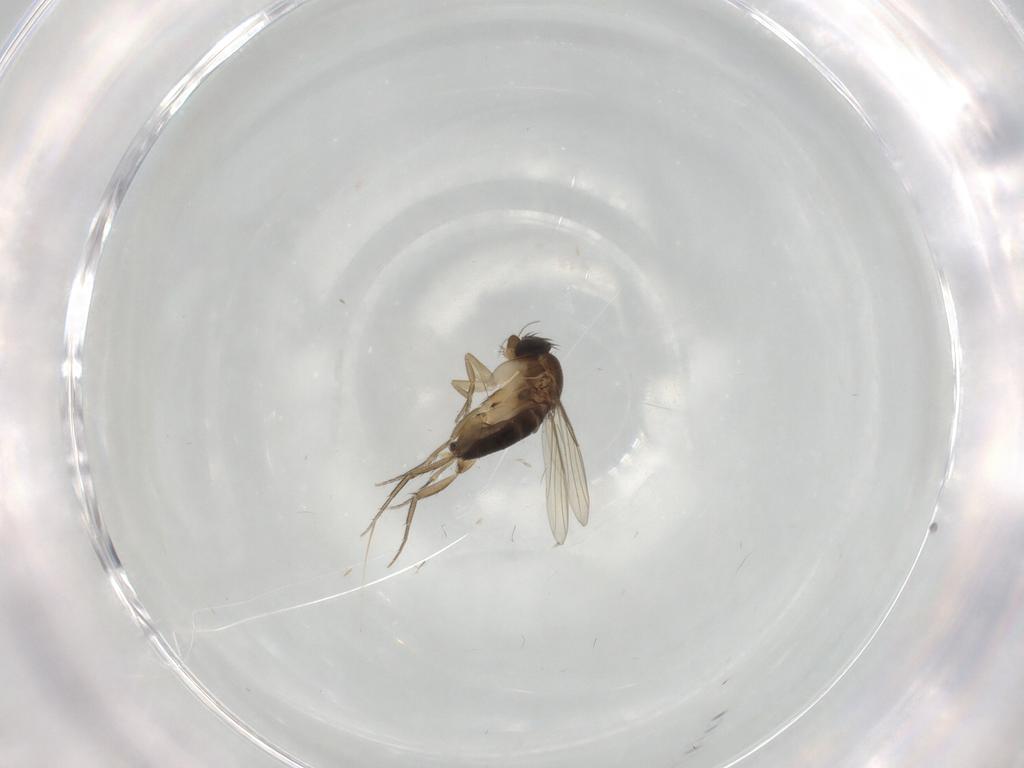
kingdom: Animalia
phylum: Arthropoda
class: Insecta
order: Diptera
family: Phoridae
